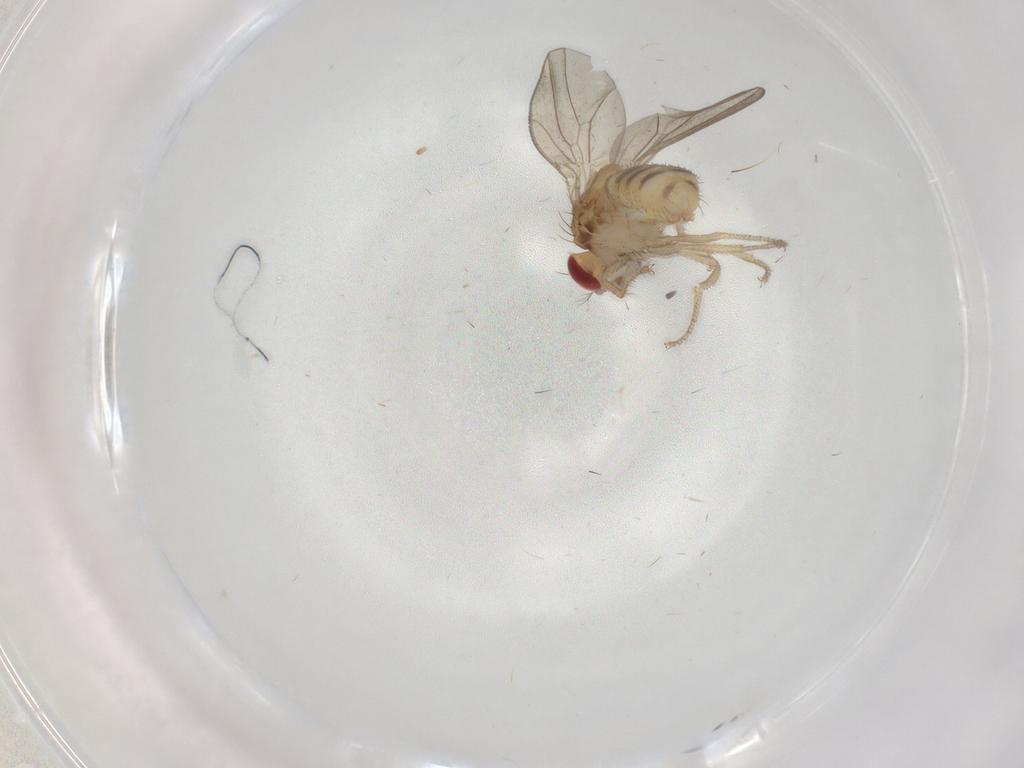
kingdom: Animalia
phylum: Arthropoda
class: Insecta
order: Diptera
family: Drosophilidae
